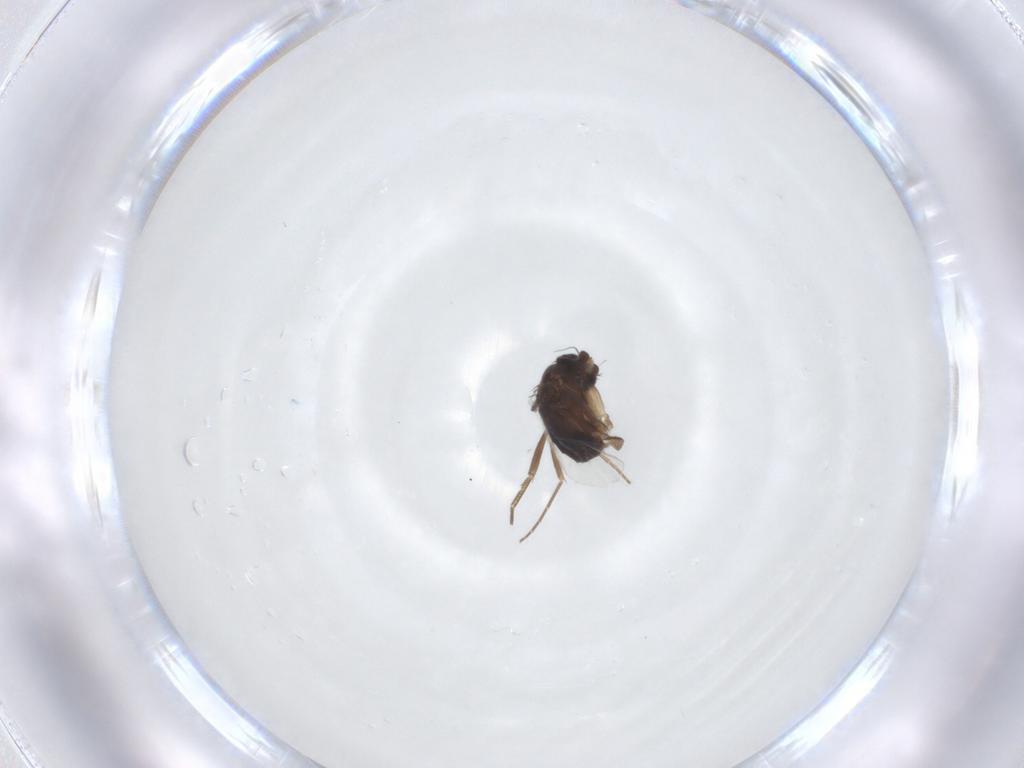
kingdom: Animalia
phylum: Arthropoda
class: Insecta
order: Diptera
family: Phoridae
